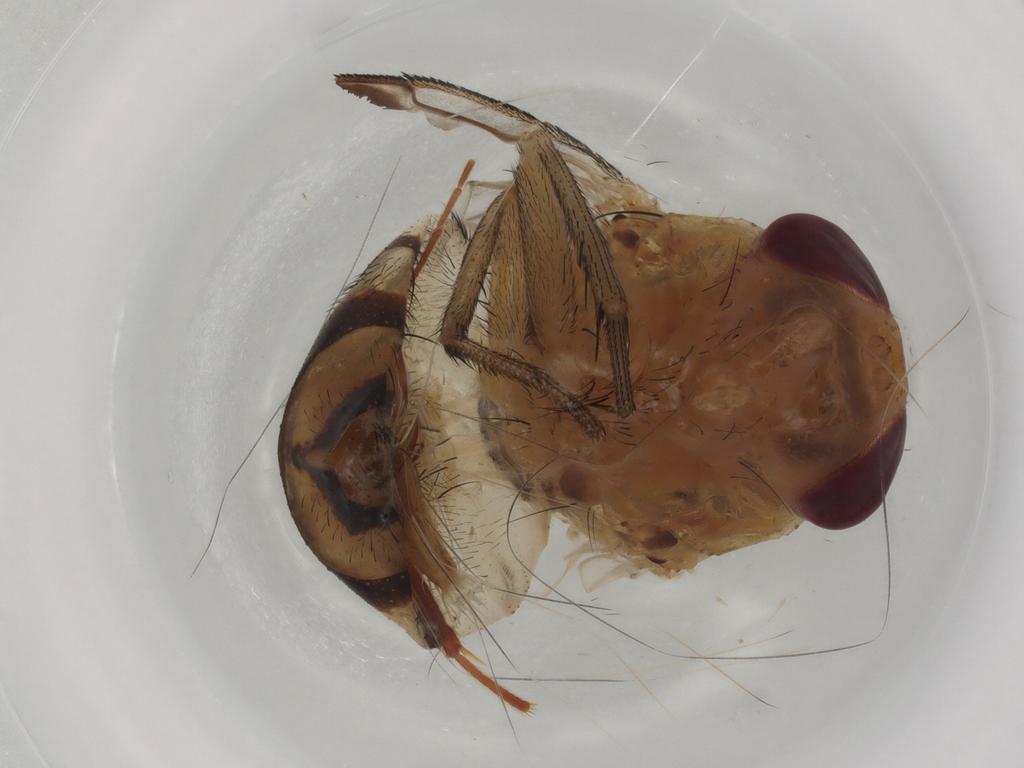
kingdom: Animalia
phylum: Arthropoda
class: Insecta
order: Diptera
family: Calliphoridae
